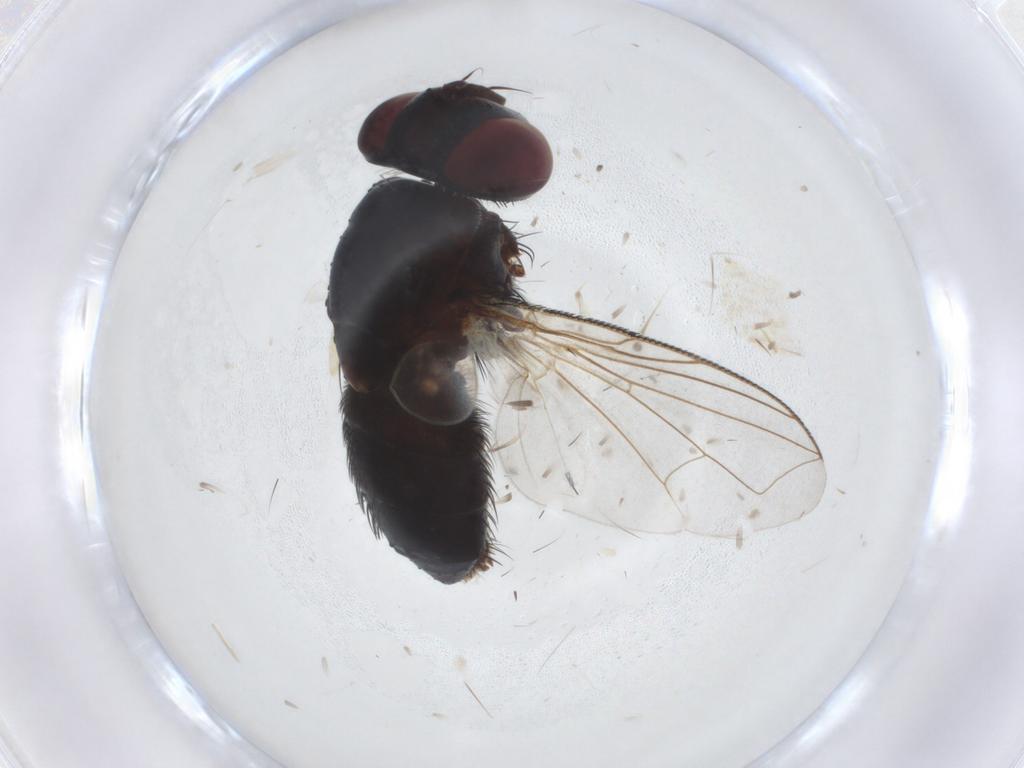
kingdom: Animalia
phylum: Arthropoda
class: Insecta
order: Diptera
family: Tachinidae
